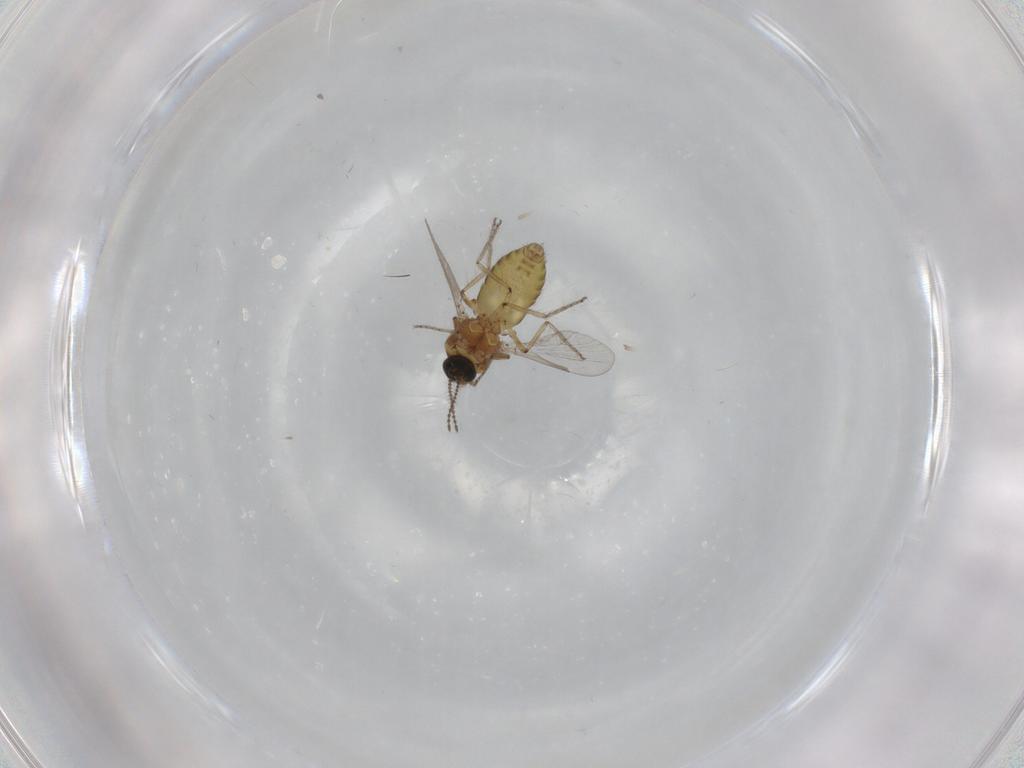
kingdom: Animalia
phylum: Arthropoda
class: Insecta
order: Diptera
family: Ceratopogonidae
